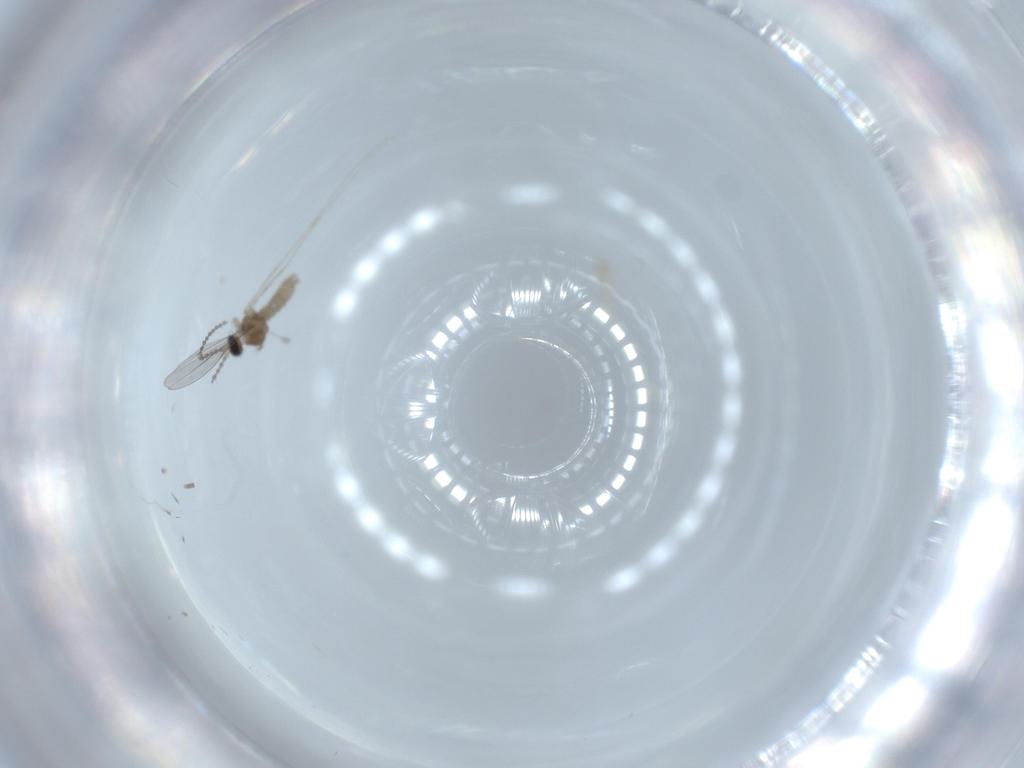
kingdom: Animalia
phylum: Arthropoda
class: Insecta
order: Diptera
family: Cecidomyiidae
